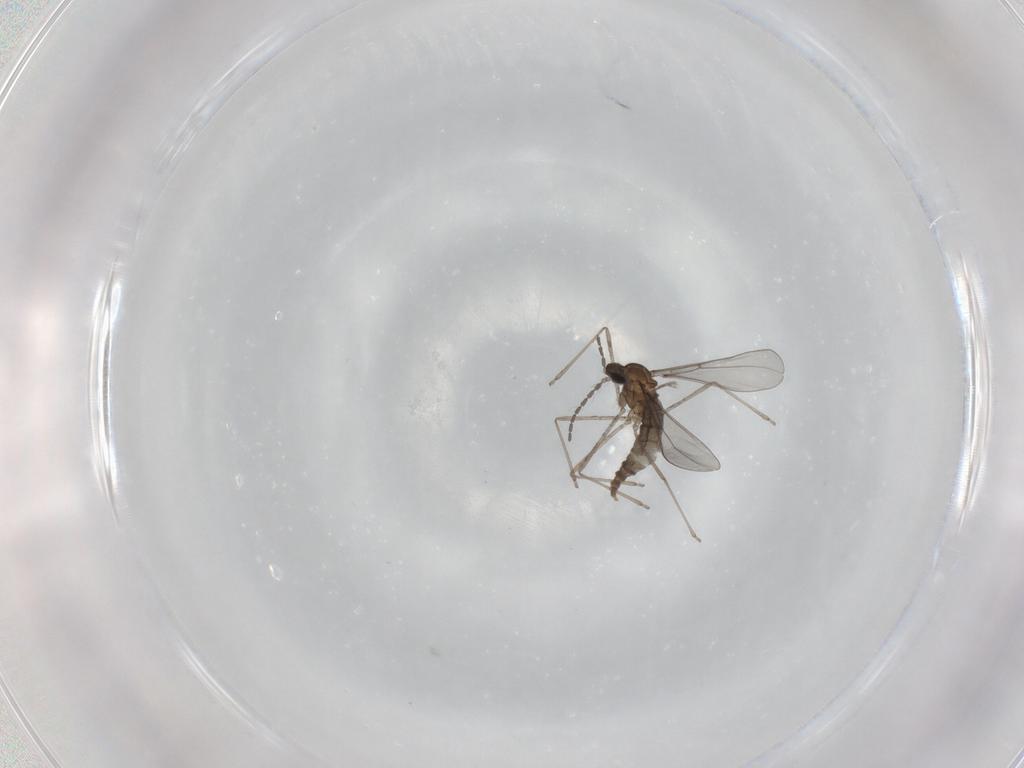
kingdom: Animalia
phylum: Arthropoda
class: Insecta
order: Diptera
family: Cecidomyiidae
